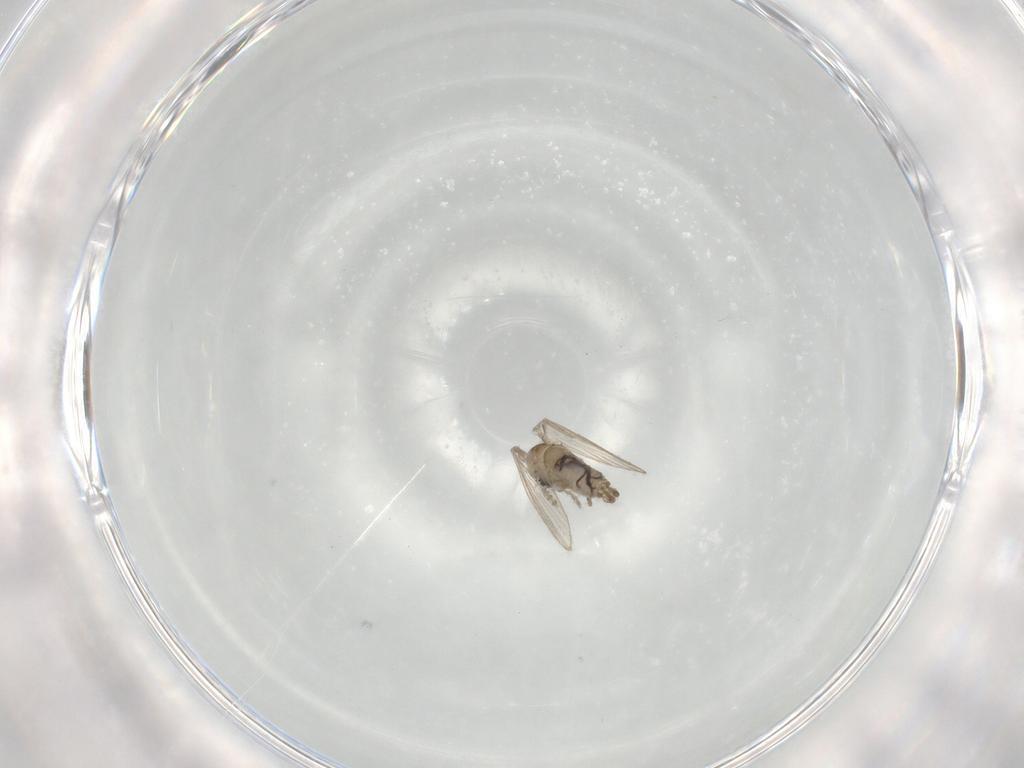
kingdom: Animalia
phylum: Arthropoda
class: Insecta
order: Diptera
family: Psychodidae
